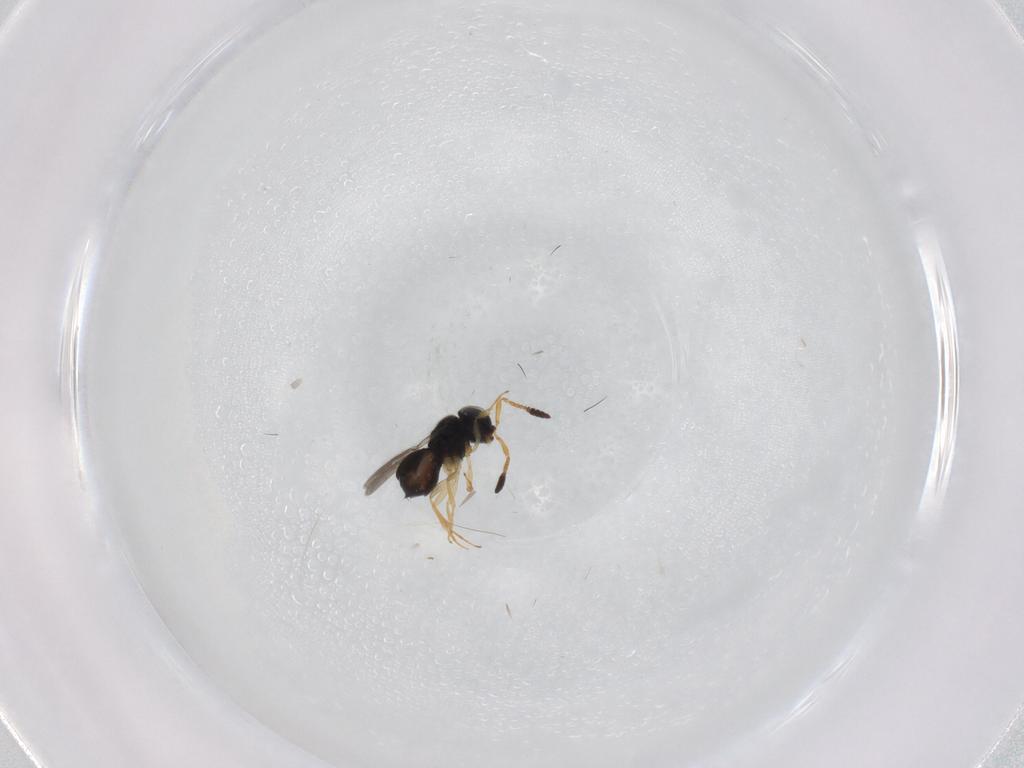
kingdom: Animalia
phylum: Arthropoda
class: Insecta
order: Hymenoptera
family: Scelionidae
